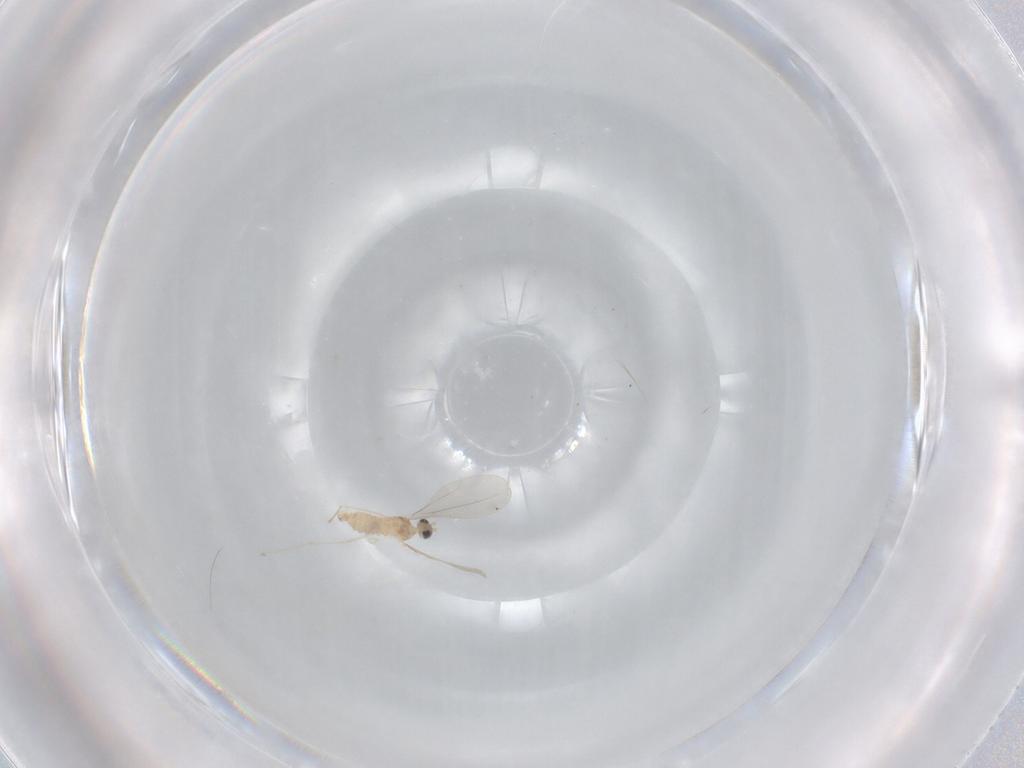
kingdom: Animalia
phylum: Arthropoda
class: Insecta
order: Diptera
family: Cecidomyiidae
